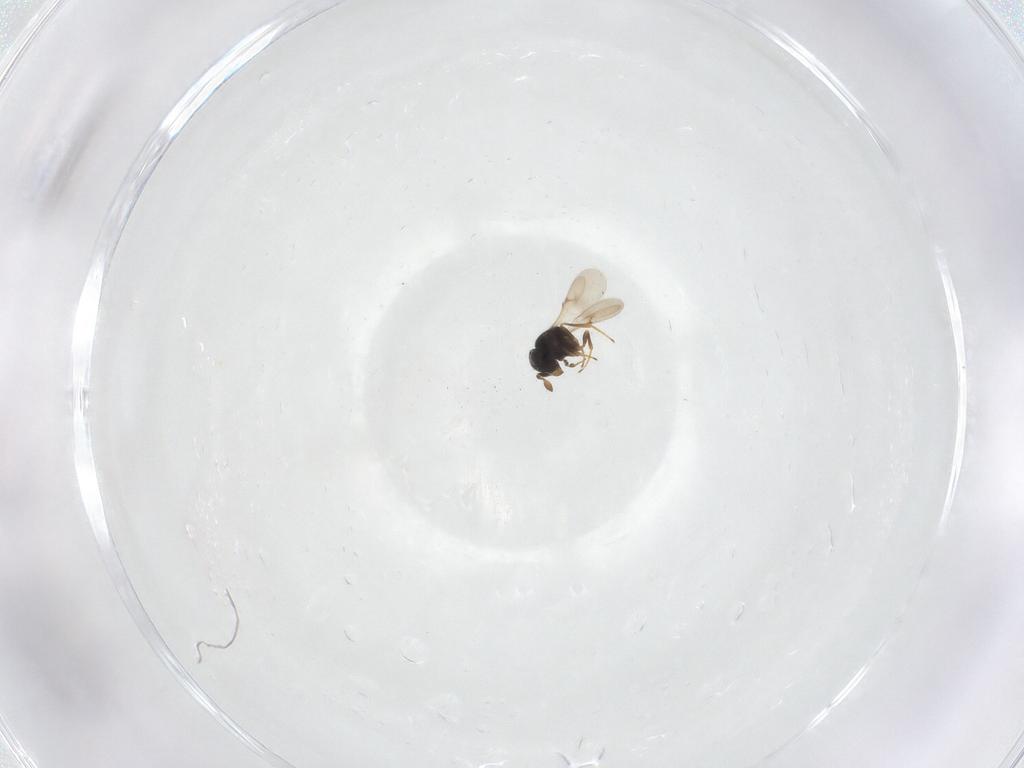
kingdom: Animalia
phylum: Arthropoda
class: Insecta
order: Hymenoptera
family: Scelionidae
